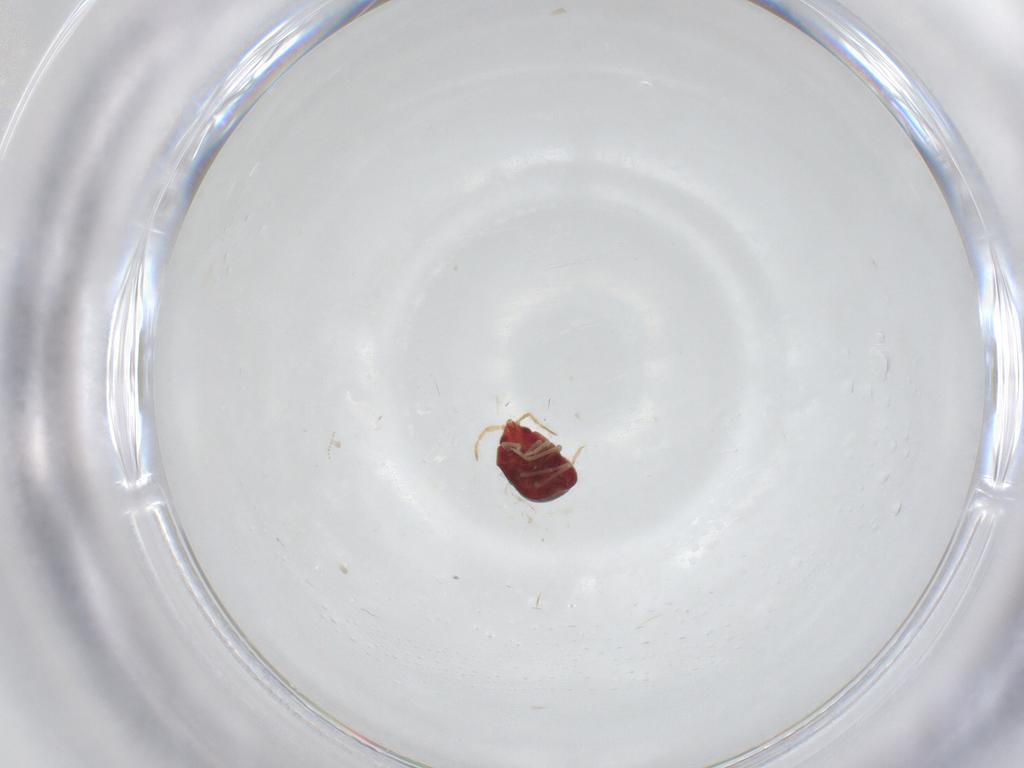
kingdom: Animalia
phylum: Arthropoda
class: Insecta
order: Hemiptera
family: Anthocoridae
